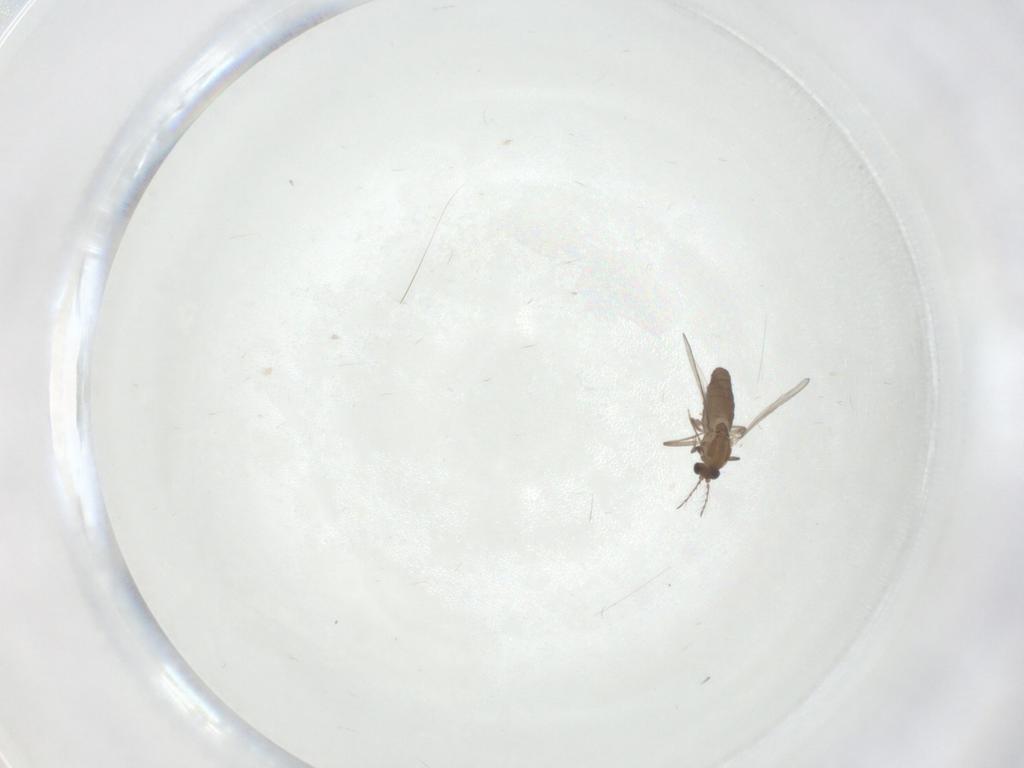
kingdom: Animalia
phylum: Arthropoda
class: Insecta
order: Diptera
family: Chironomidae
